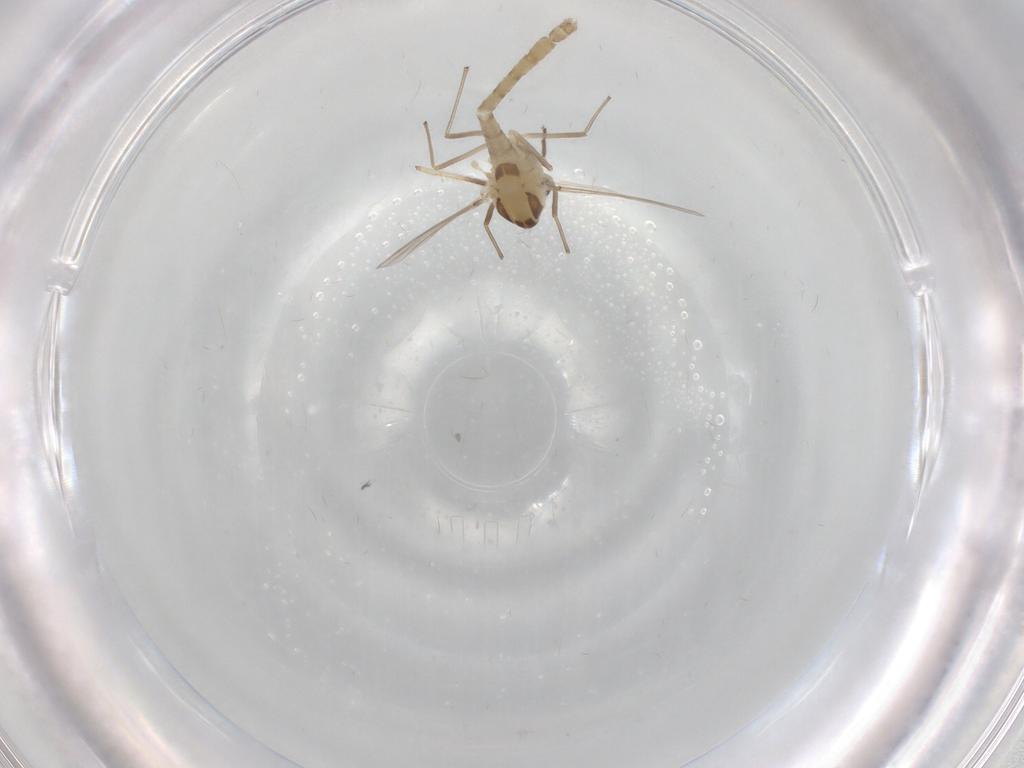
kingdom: Animalia
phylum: Arthropoda
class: Insecta
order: Diptera
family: Chironomidae
